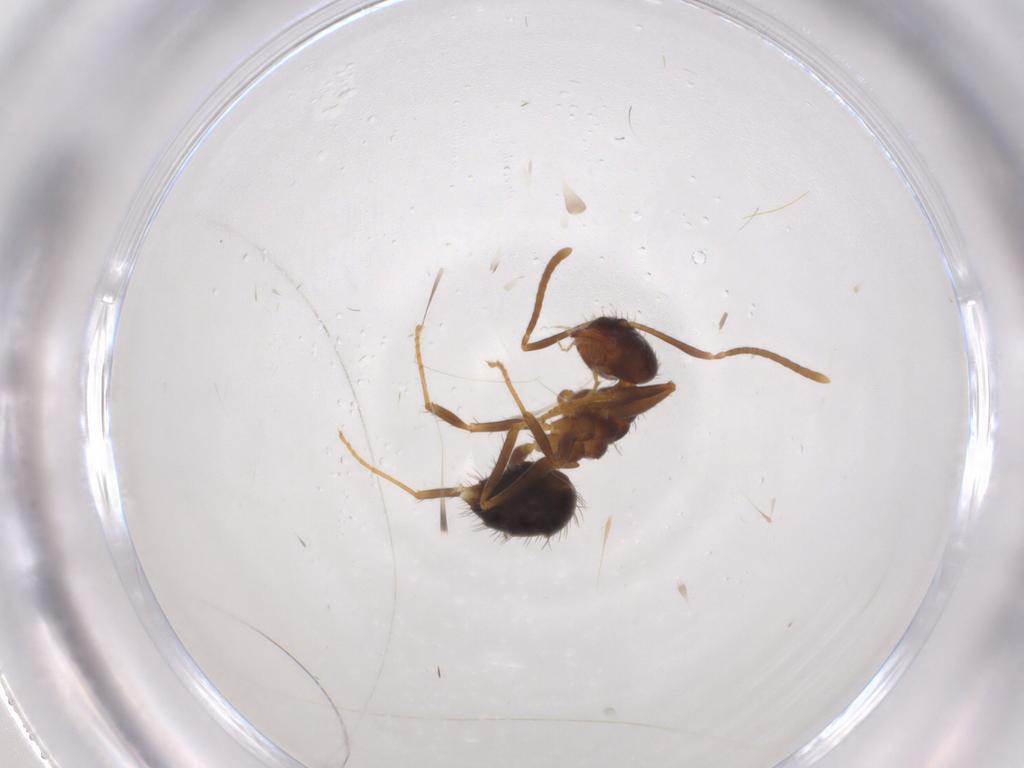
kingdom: Animalia
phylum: Arthropoda
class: Insecta
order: Hymenoptera
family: Formicidae
